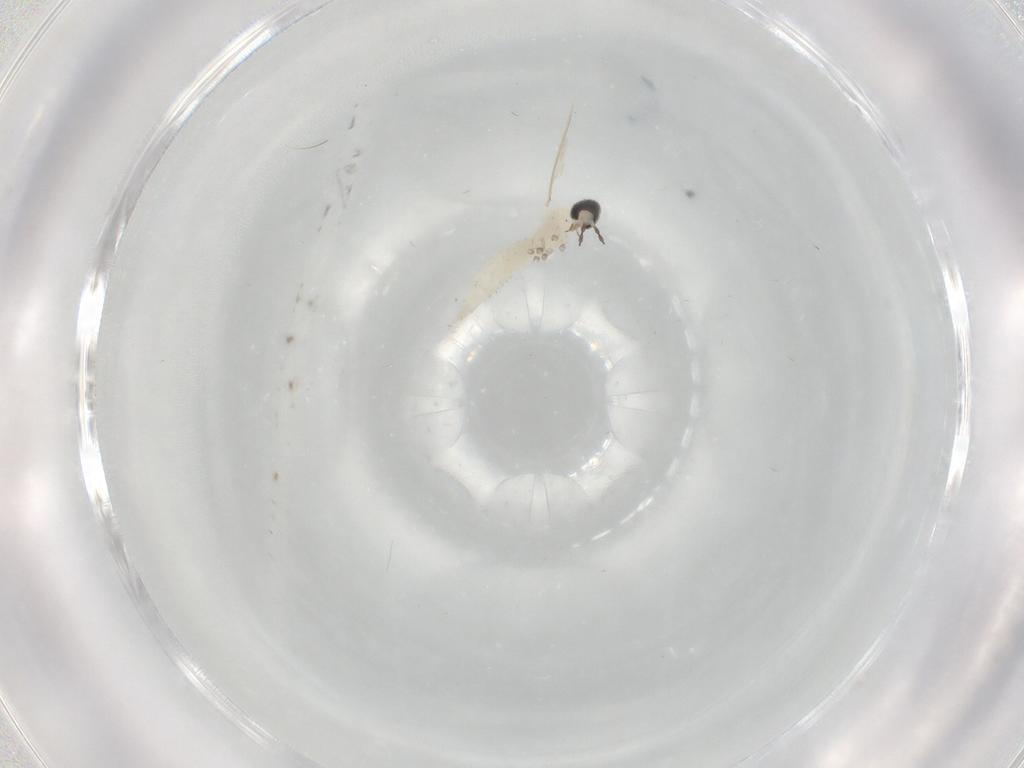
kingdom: Animalia
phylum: Arthropoda
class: Insecta
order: Diptera
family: Cecidomyiidae
